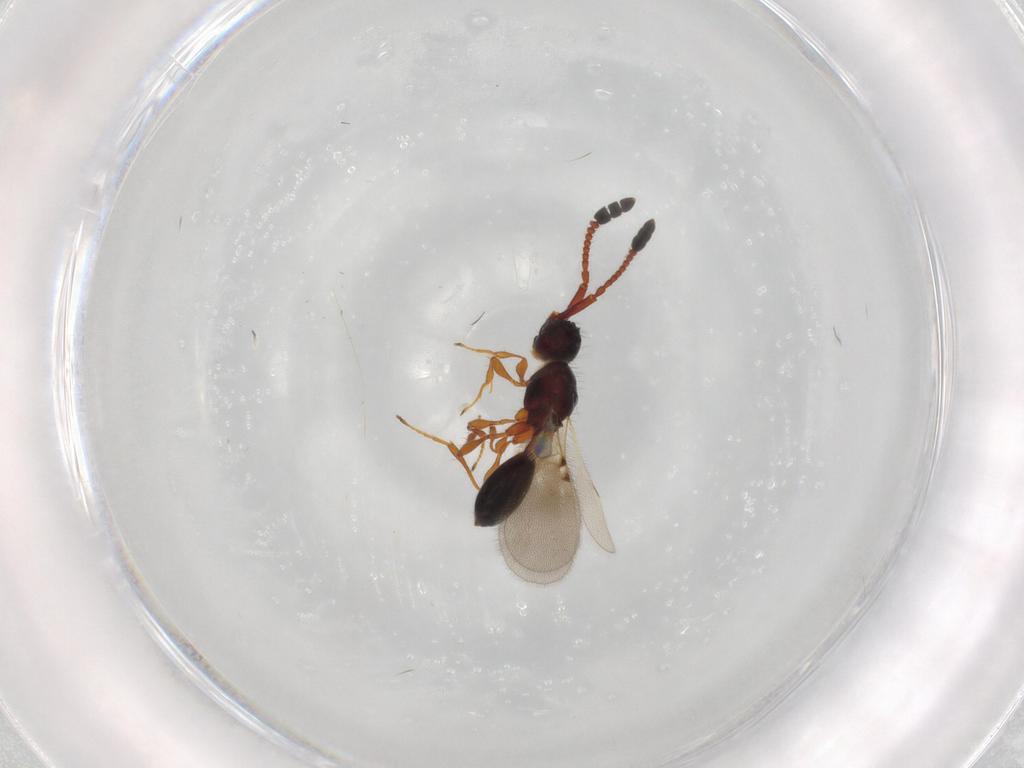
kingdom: Animalia
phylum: Arthropoda
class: Insecta
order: Hymenoptera
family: Diapriidae
